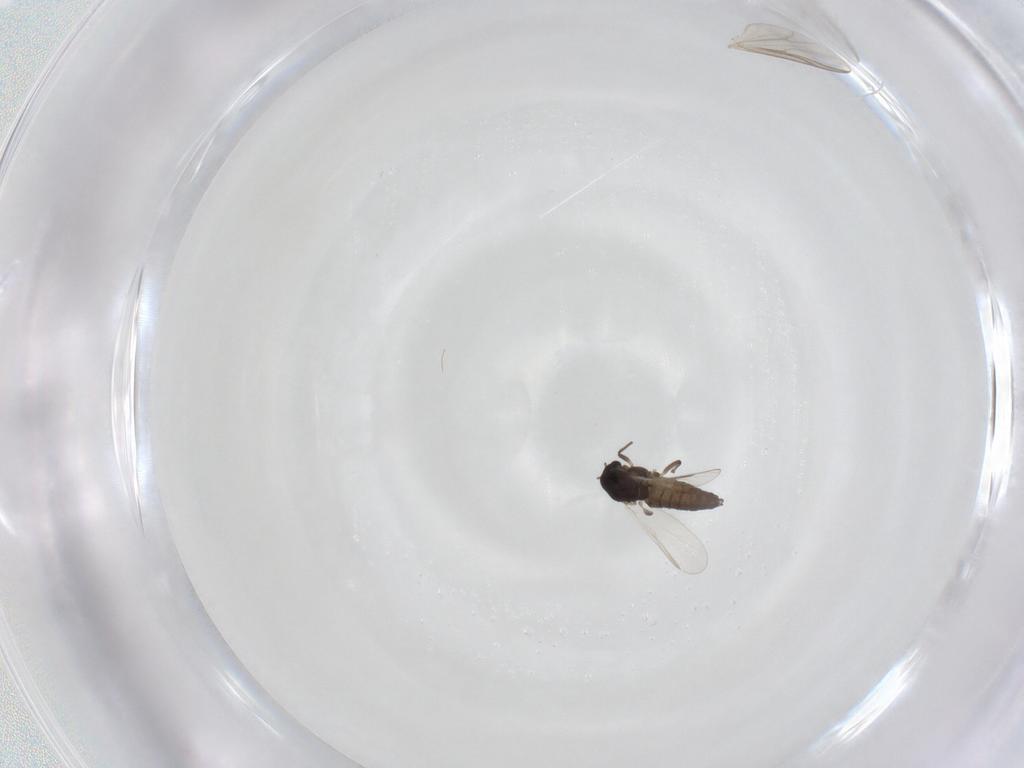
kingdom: Animalia
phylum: Arthropoda
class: Insecta
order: Diptera
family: Chironomidae
